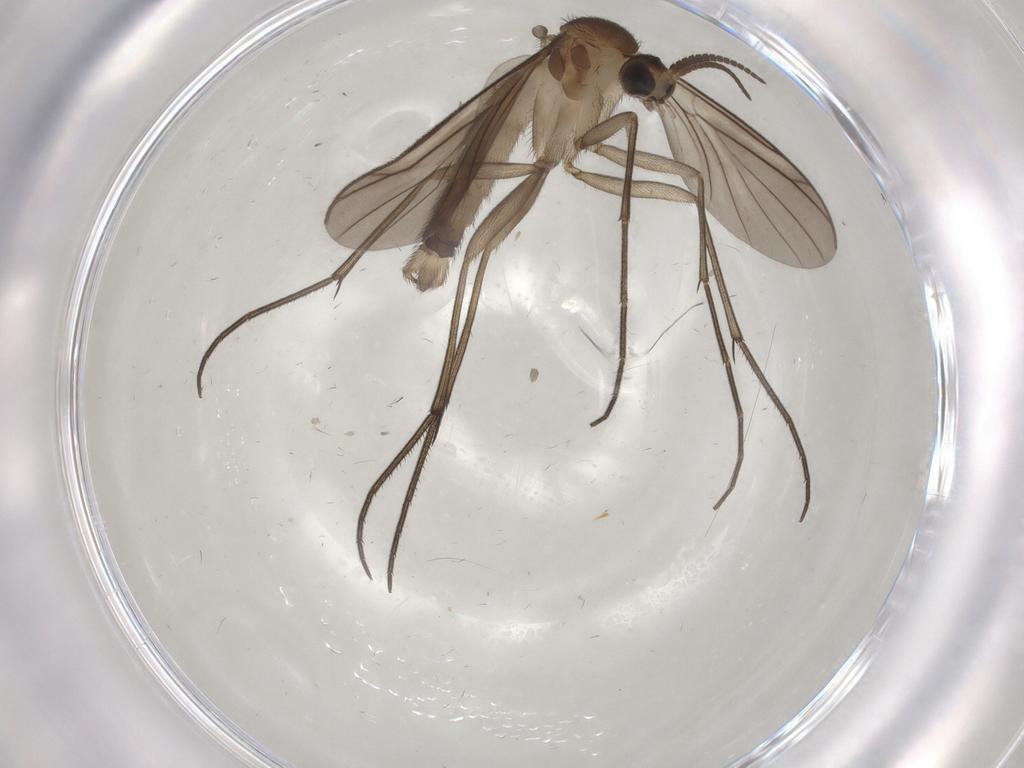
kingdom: Animalia
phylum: Arthropoda
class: Insecta
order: Diptera
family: Mycetophilidae
